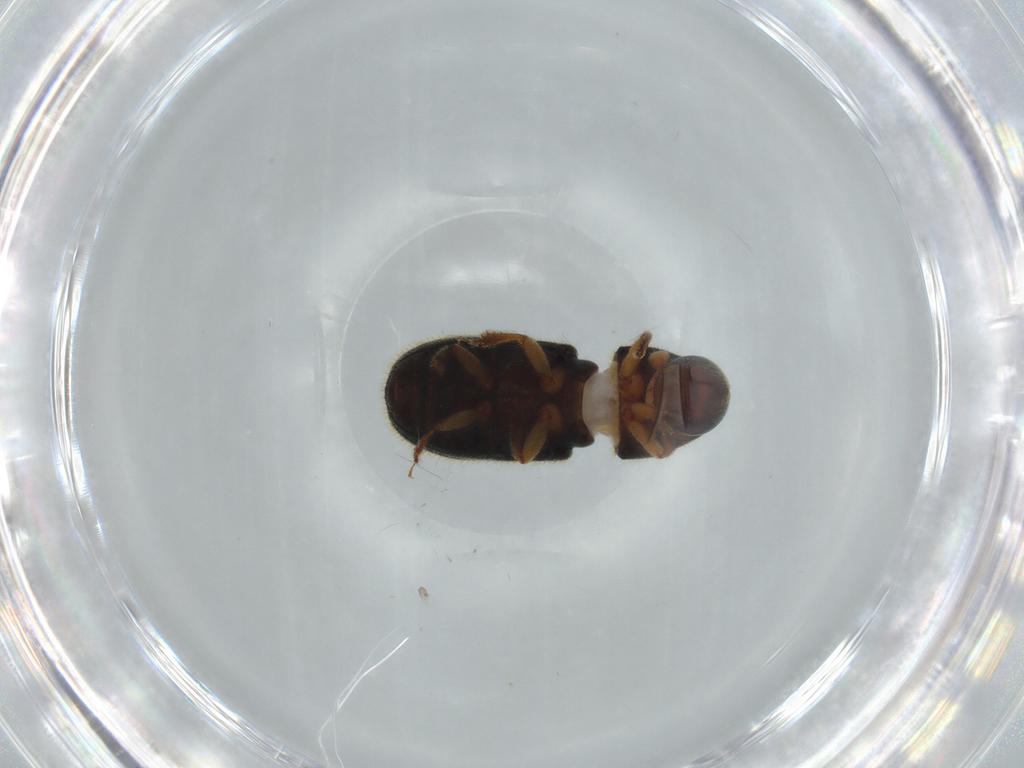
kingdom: Animalia
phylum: Arthropoda
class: Insecta
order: Coleoptera
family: Curculionidae
